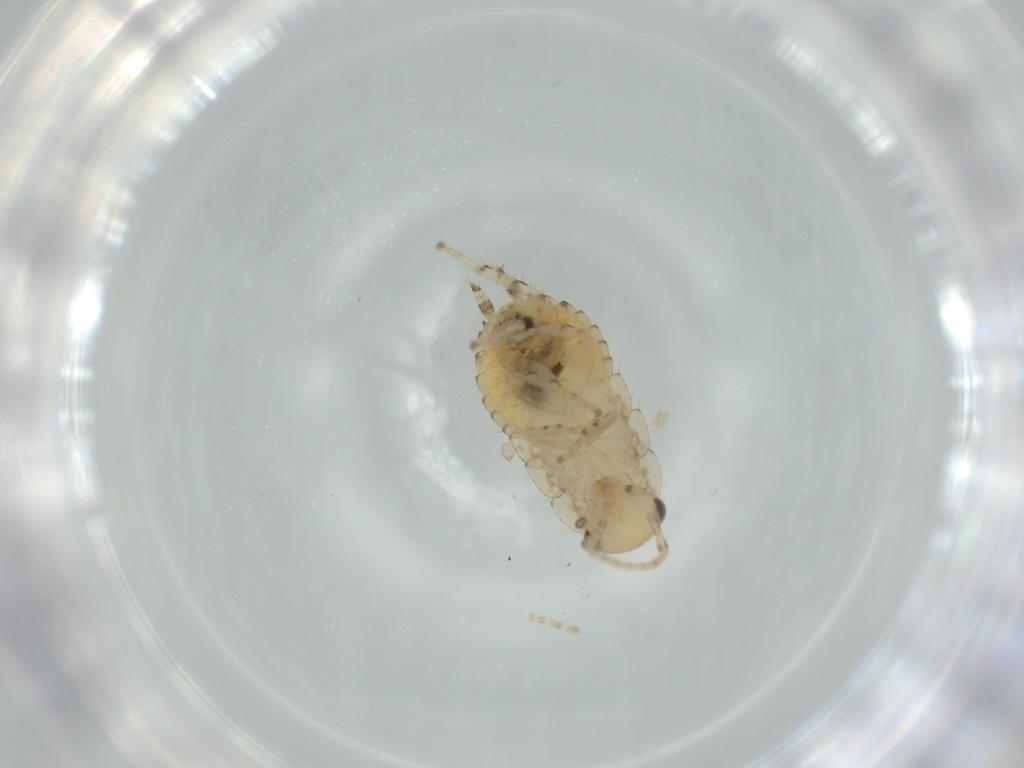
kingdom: Animalia
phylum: Arthropoda
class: Insecta
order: Blattodea
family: Ectobiidae
